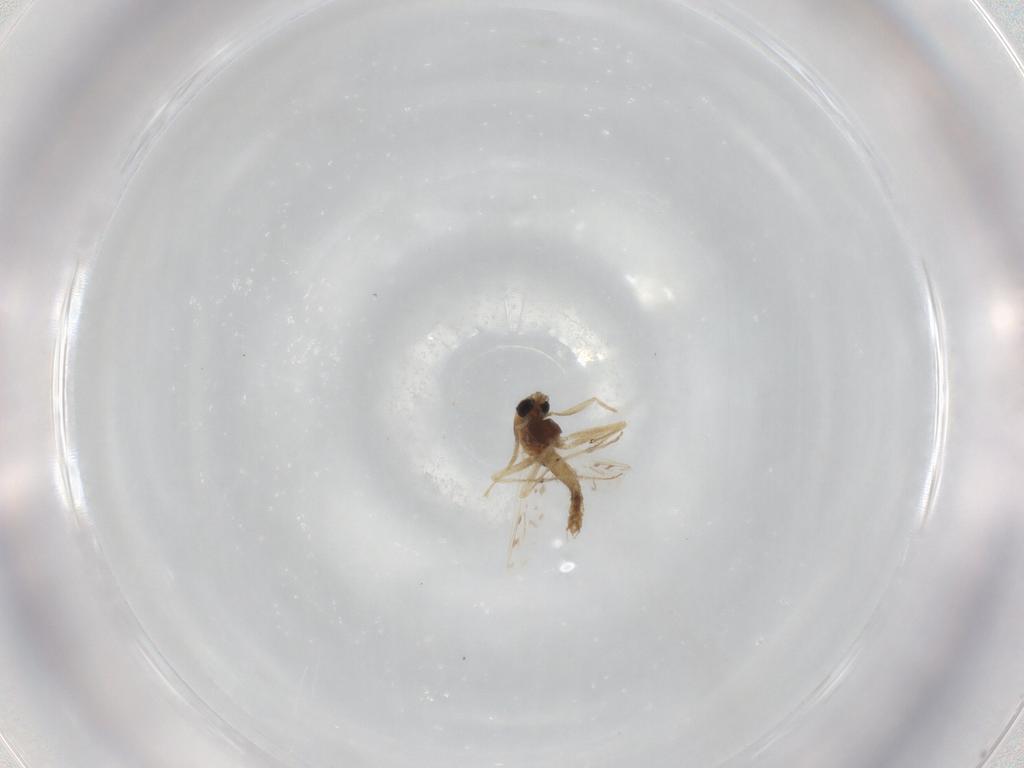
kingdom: Animalia
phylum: Arthropoda
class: Insecta
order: Diptera
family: Chironomidae
